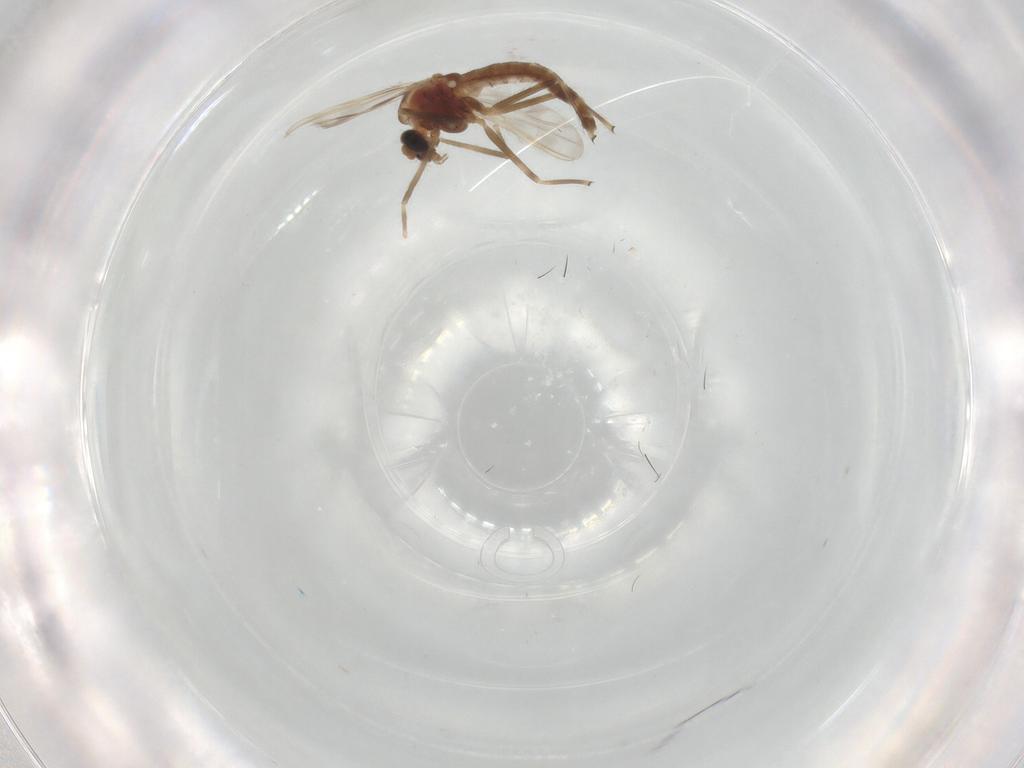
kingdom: Animalia
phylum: Arthropoda
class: Insecta
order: Diptera
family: Chironomidae
